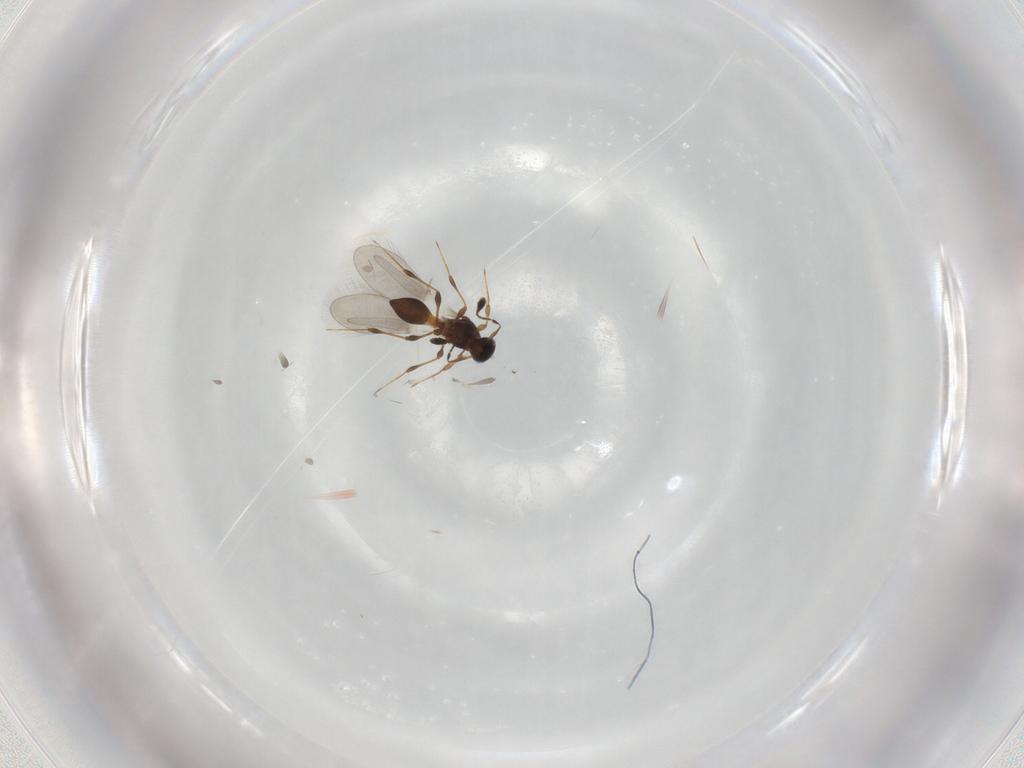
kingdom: Animalia
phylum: Arthropoda
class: Insecta
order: Hymenoptera
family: Platygastridae
